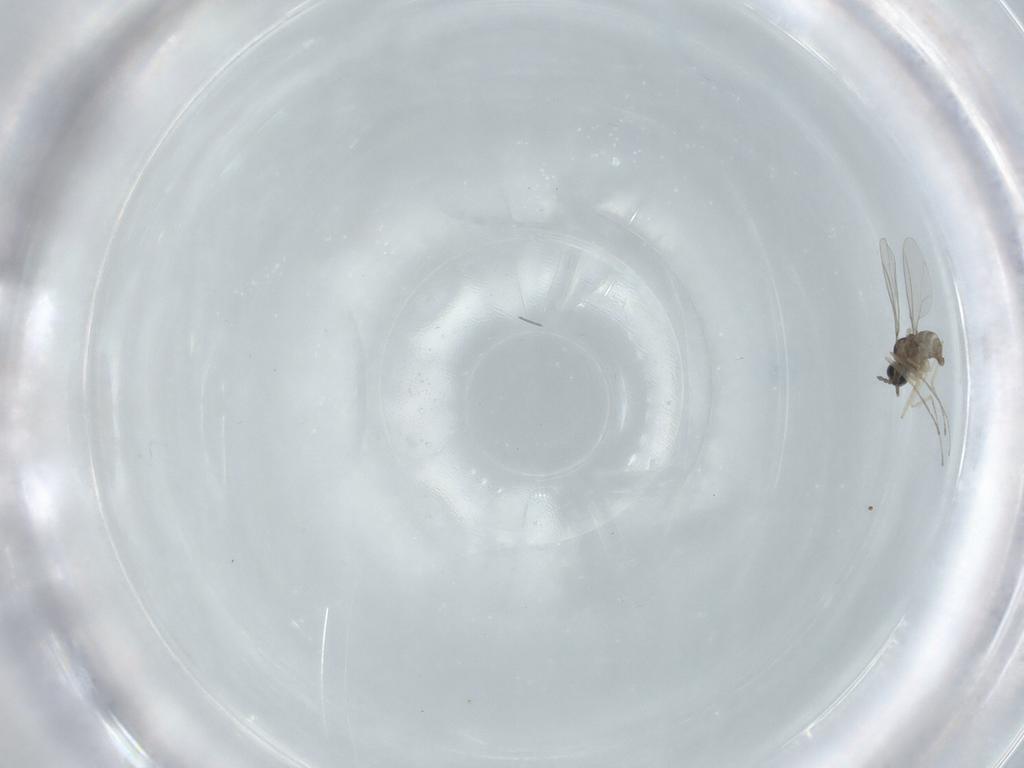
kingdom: Animalia
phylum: Arthropoda
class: Insecta
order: Diptera
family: Cecidomyiidae
